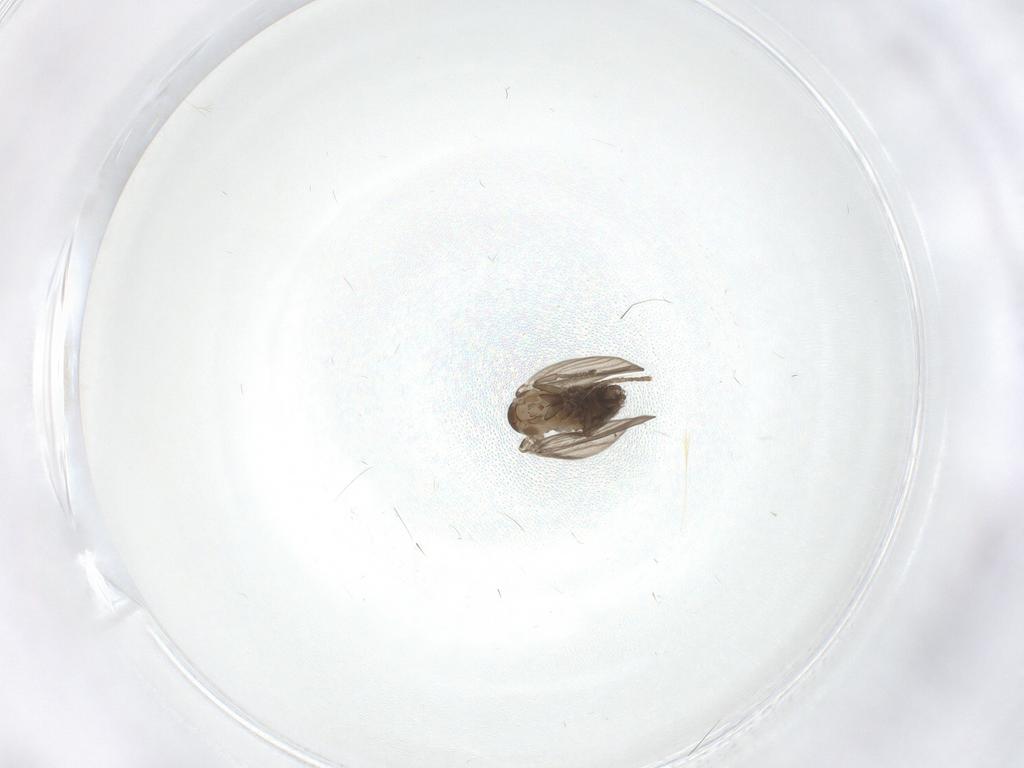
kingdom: Animalia
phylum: Arthropoda
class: Insecta
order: Diptera
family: Psychodidae
